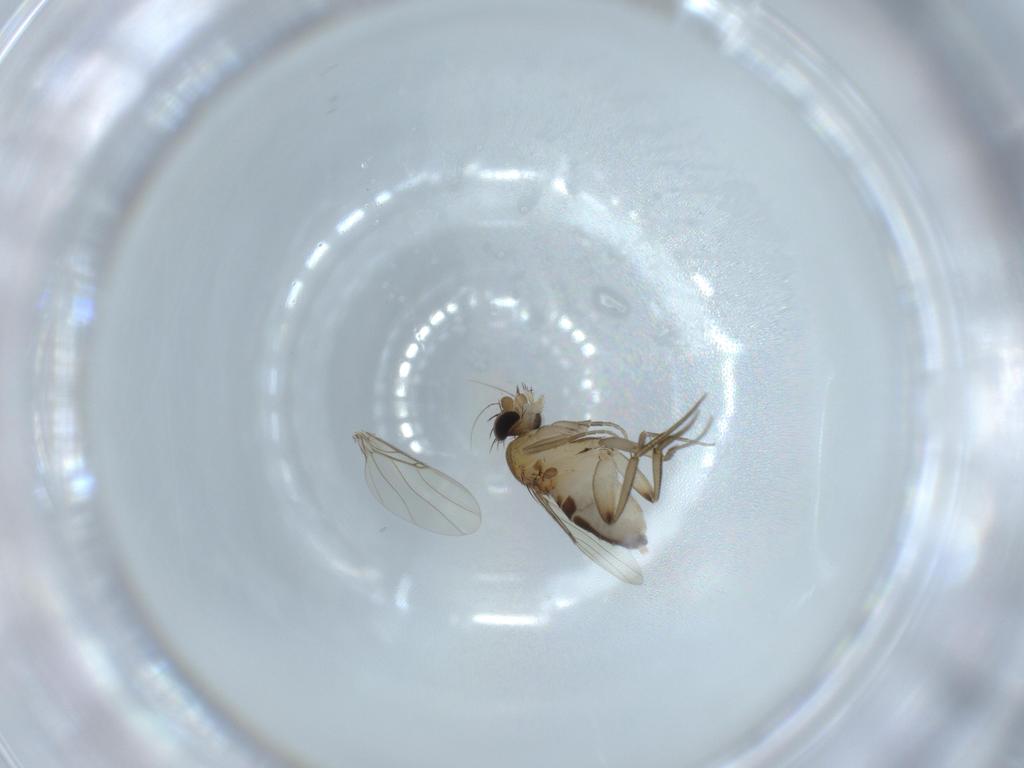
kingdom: Animalia
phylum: Arthropoda
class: Insecta
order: Diptera
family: Phoridae
